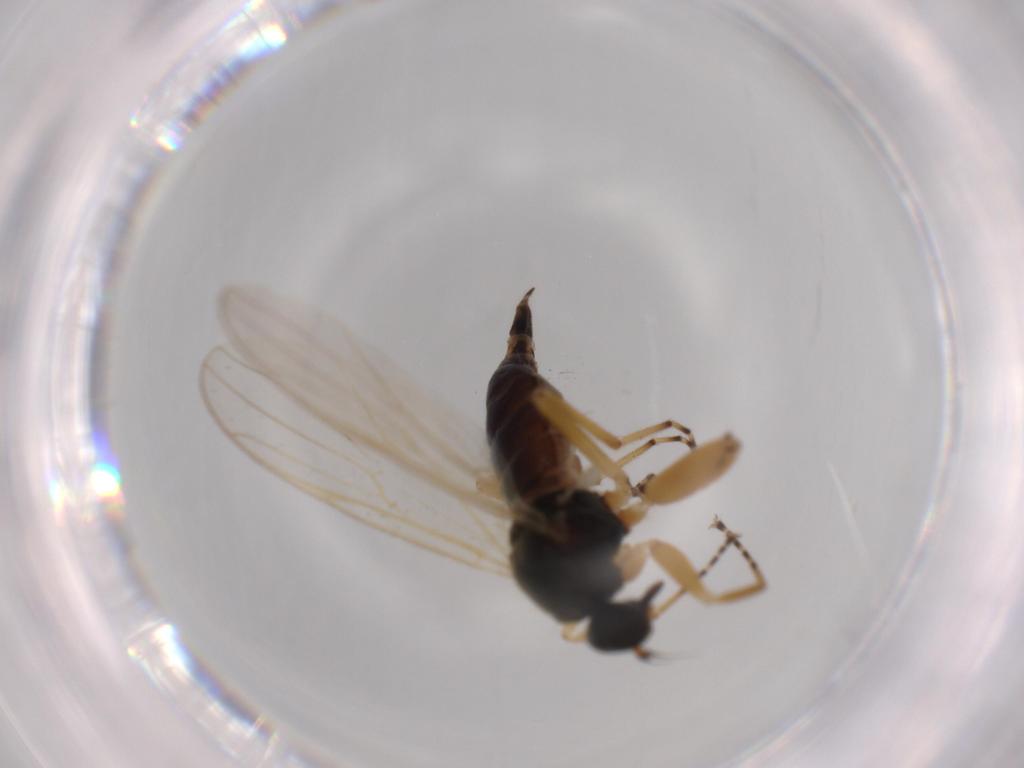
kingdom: Animalia
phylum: Arthropoda
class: Insecta
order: Diptera
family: Hybotidae
